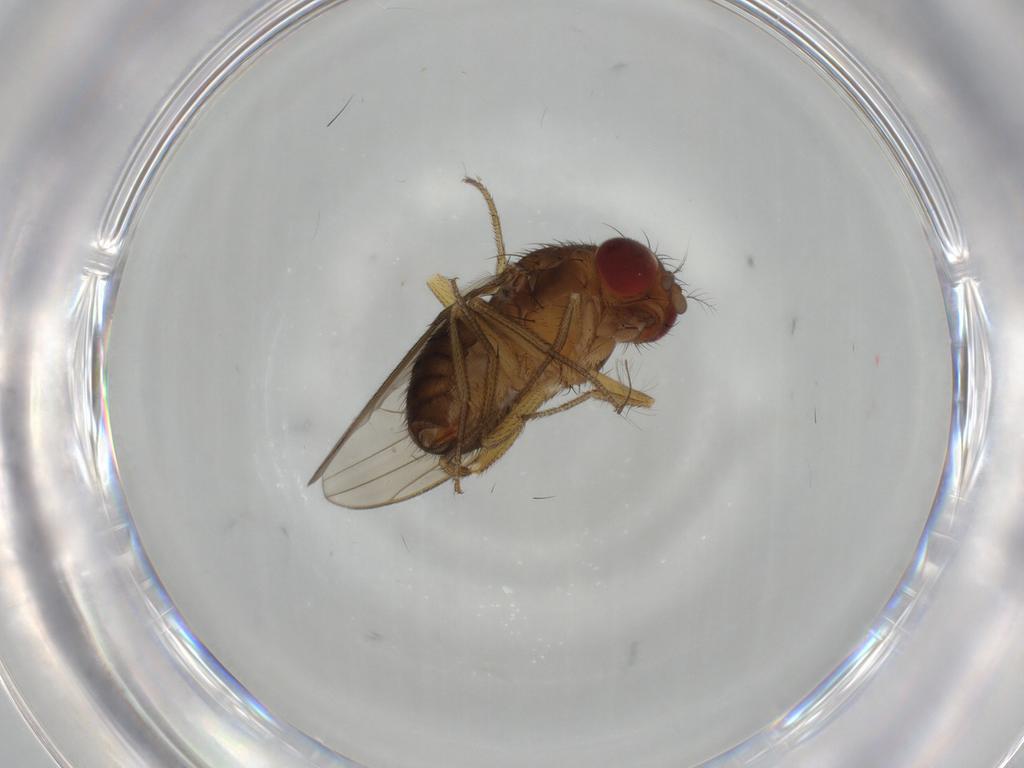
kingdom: Animalia
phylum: Arthropoda
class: Insecta
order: Diptera
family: Drosophilidae
